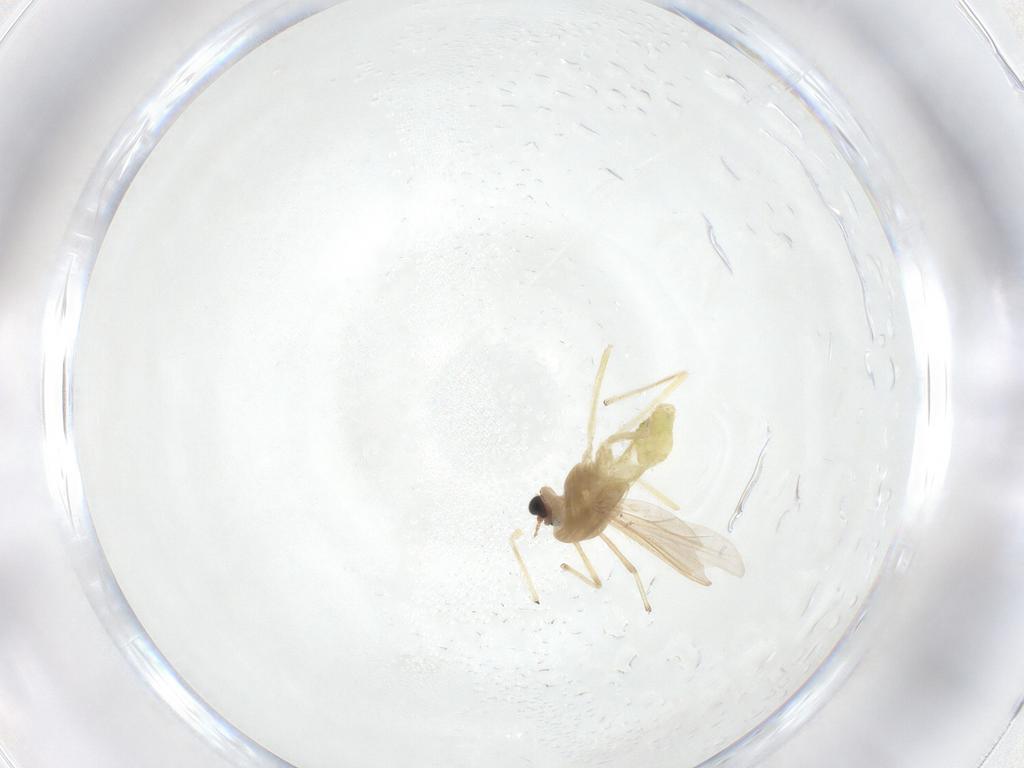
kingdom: Animalia
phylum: Arthropoda
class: Insecta
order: Diptera
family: Chironomidae
